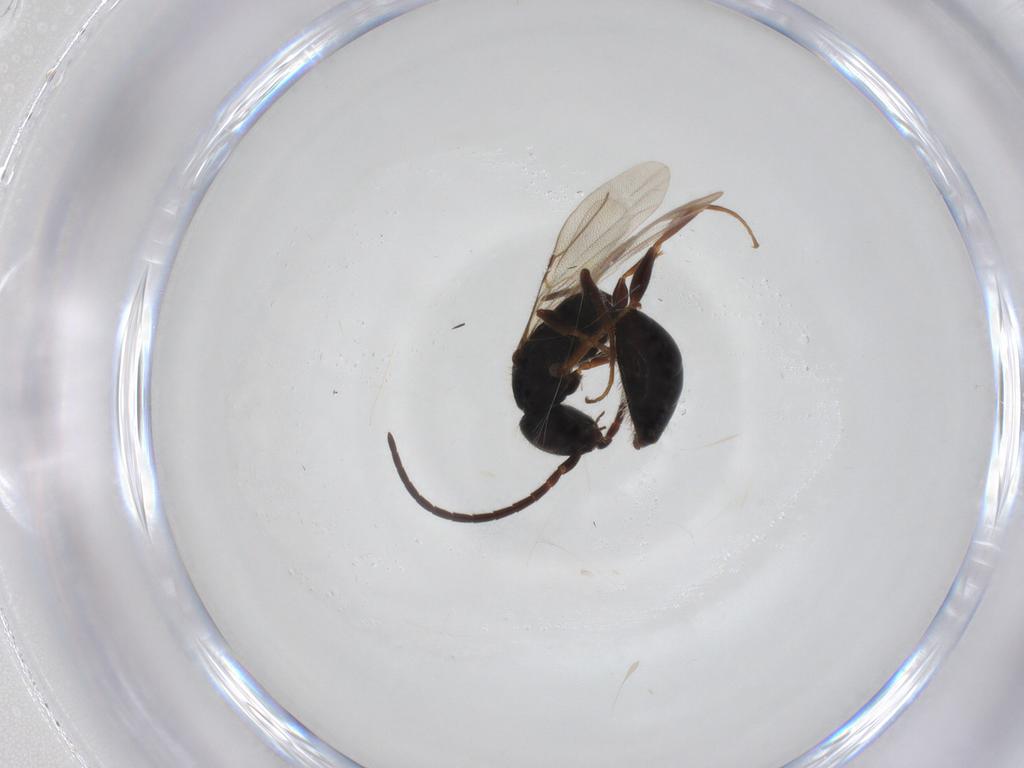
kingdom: Animalia
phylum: Arthropoda
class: Insecta
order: Hymenoptera
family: Bethylidae
